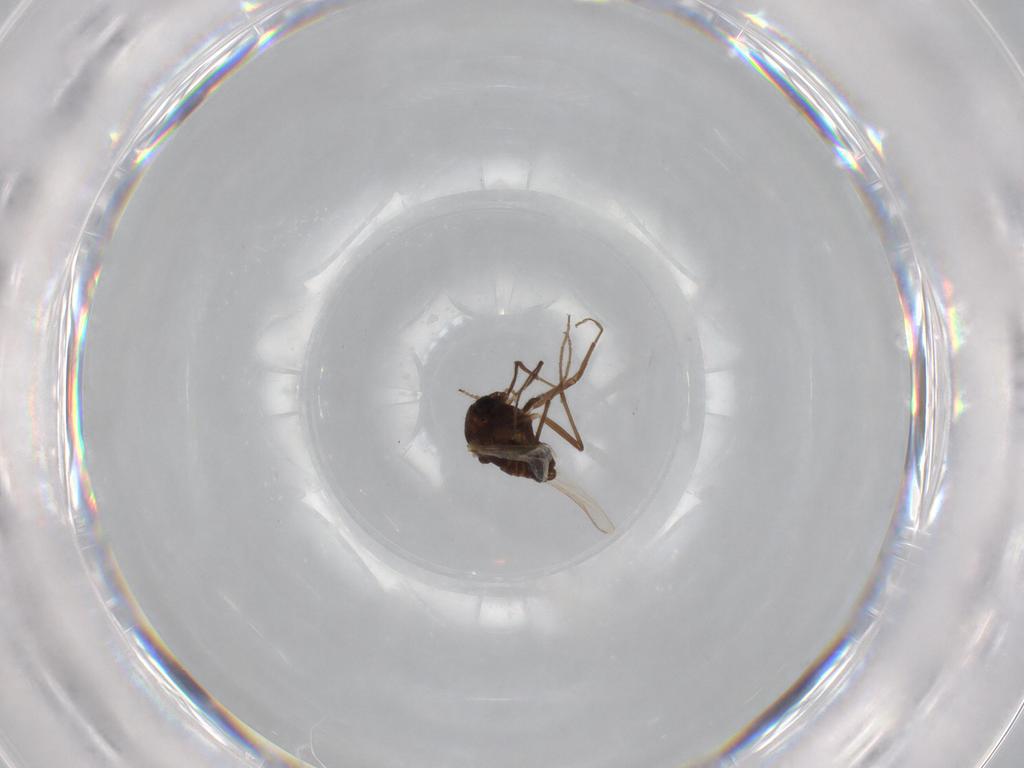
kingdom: Animalia
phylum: Arthropoda
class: Insecta
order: Diptera
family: Chironomidae
